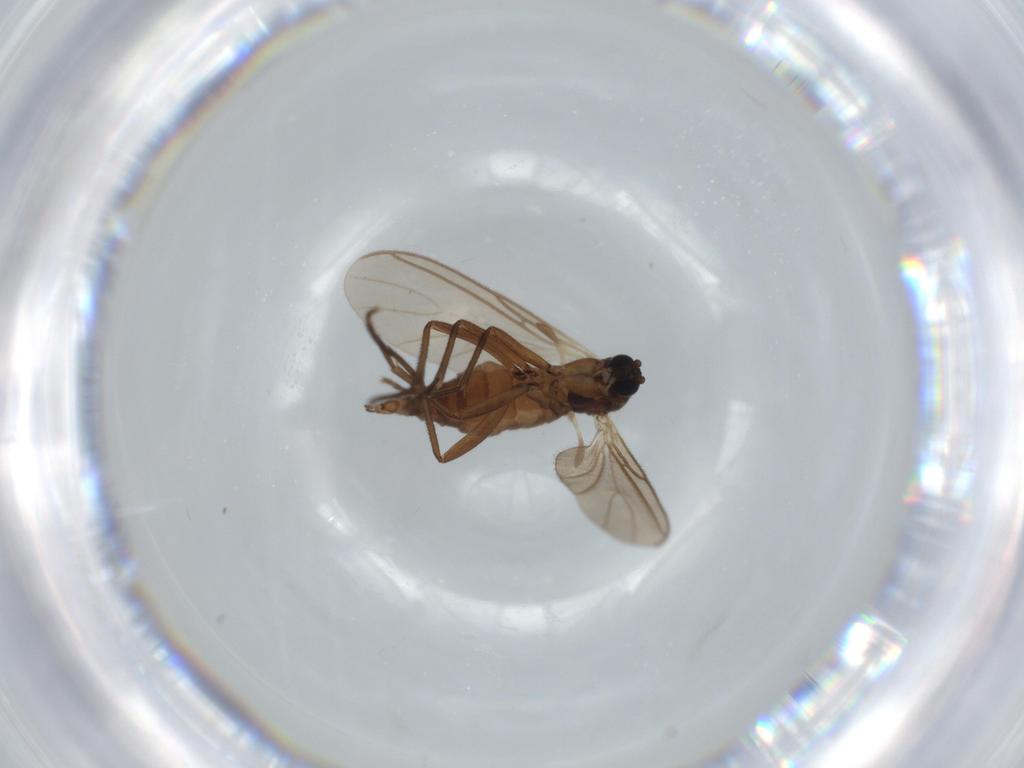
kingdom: Animalia
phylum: Arthropoda
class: Insecta
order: Diptera
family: Sciaridae
